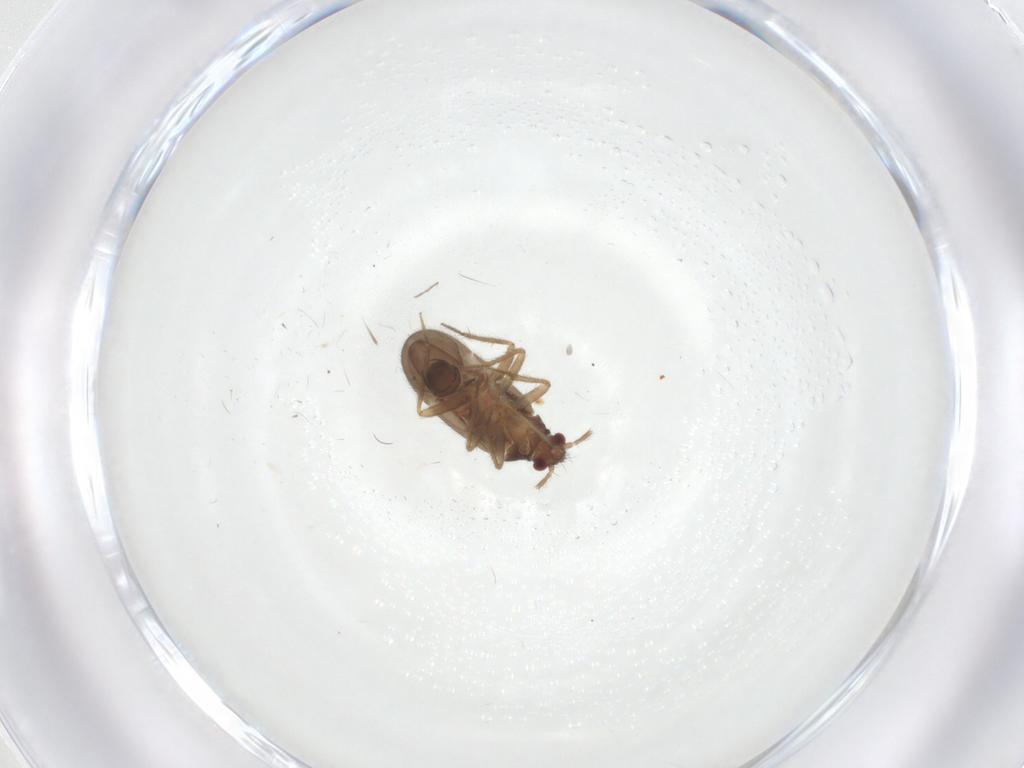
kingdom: Animalia
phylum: Arthropoda
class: Insecta
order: Hemiptera
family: Ceratocombidae
